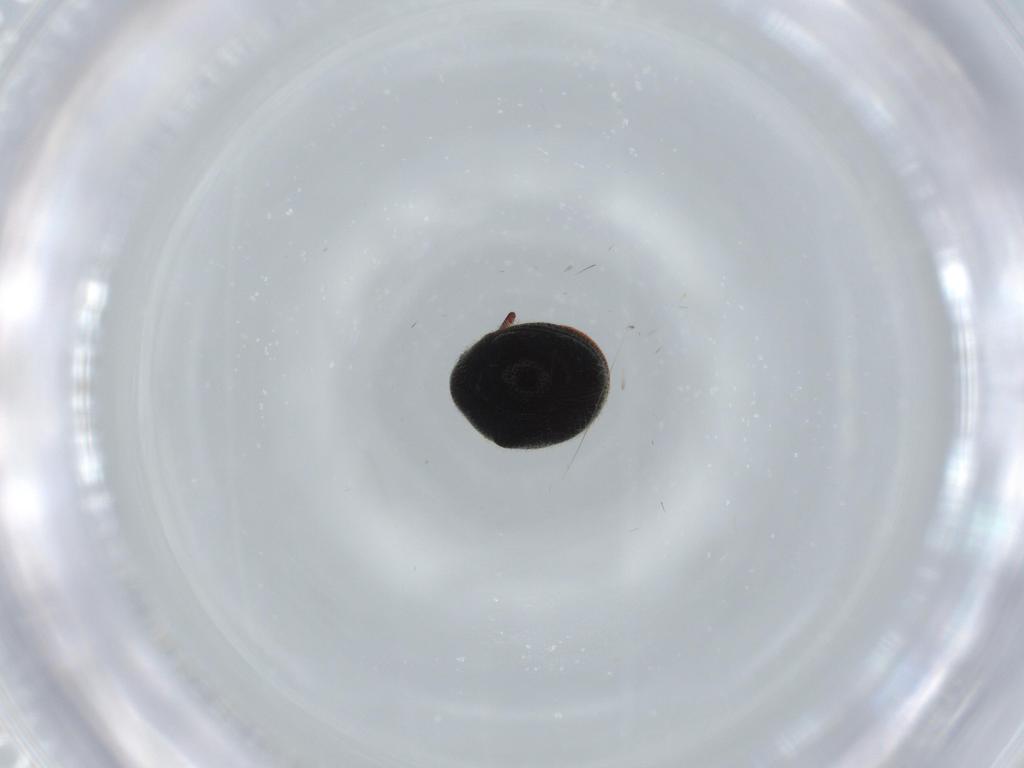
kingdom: Animalia
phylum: Arthropoda
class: Insecta
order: Coleoptera
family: Ptinidae
